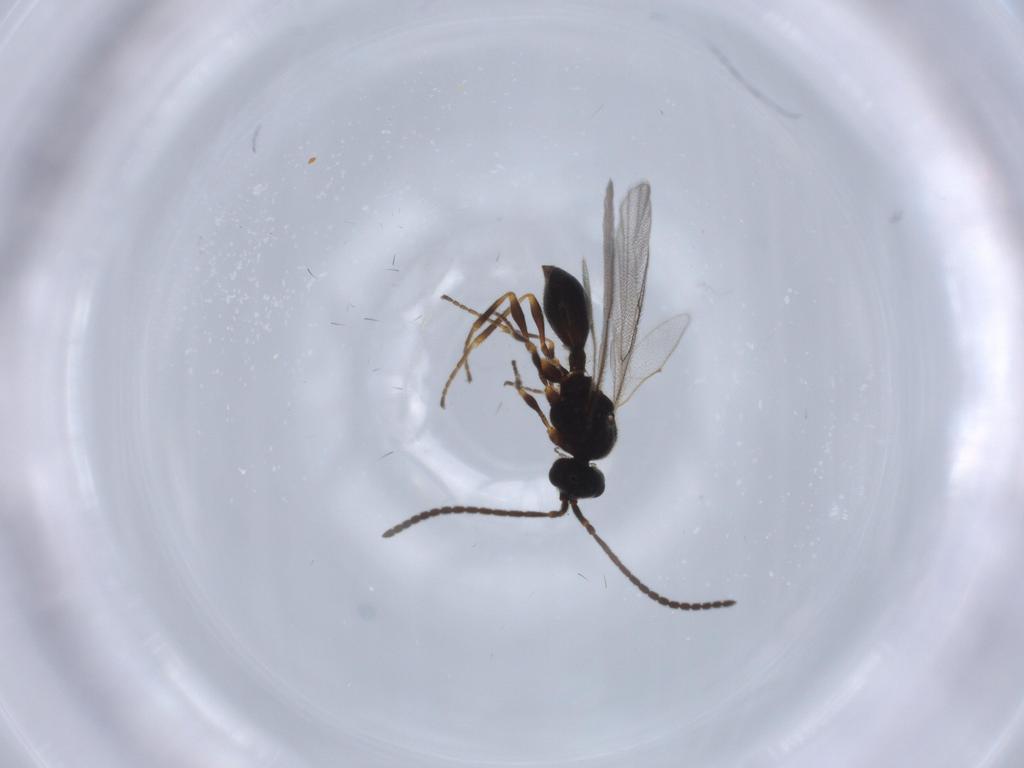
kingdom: Animalia
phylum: Arthropoda
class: Insecta
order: Hymenoptera
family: Diapriidae
